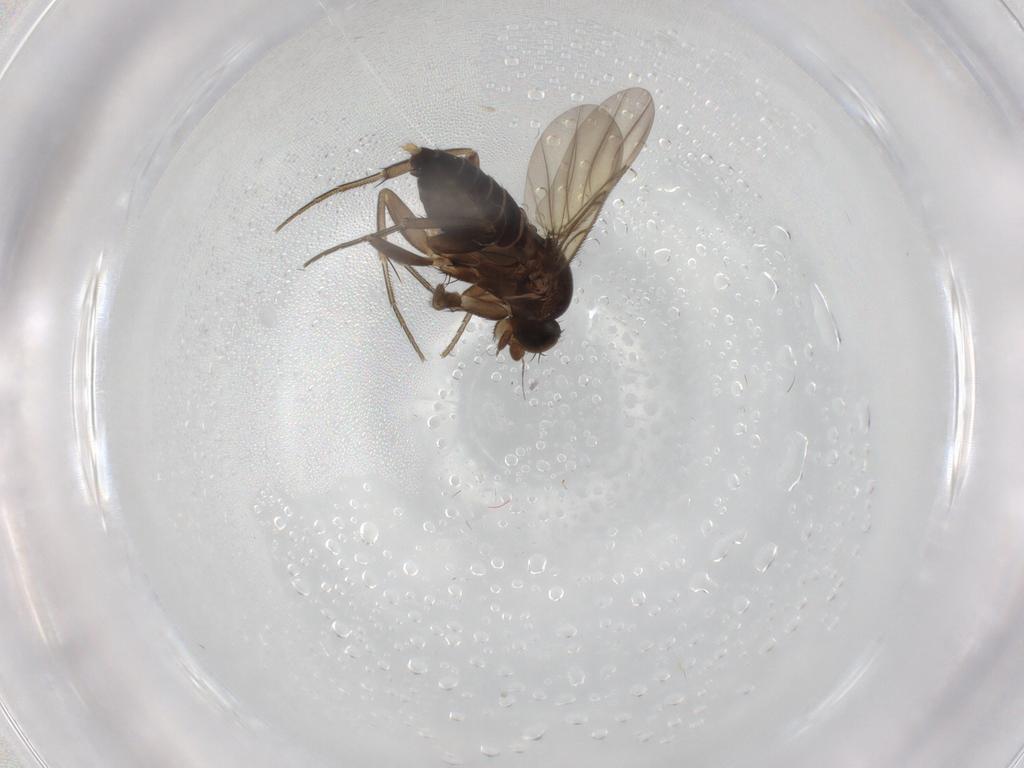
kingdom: Animalia
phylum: Arthropoda
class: Insecta
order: Diptera
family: Phoridae
